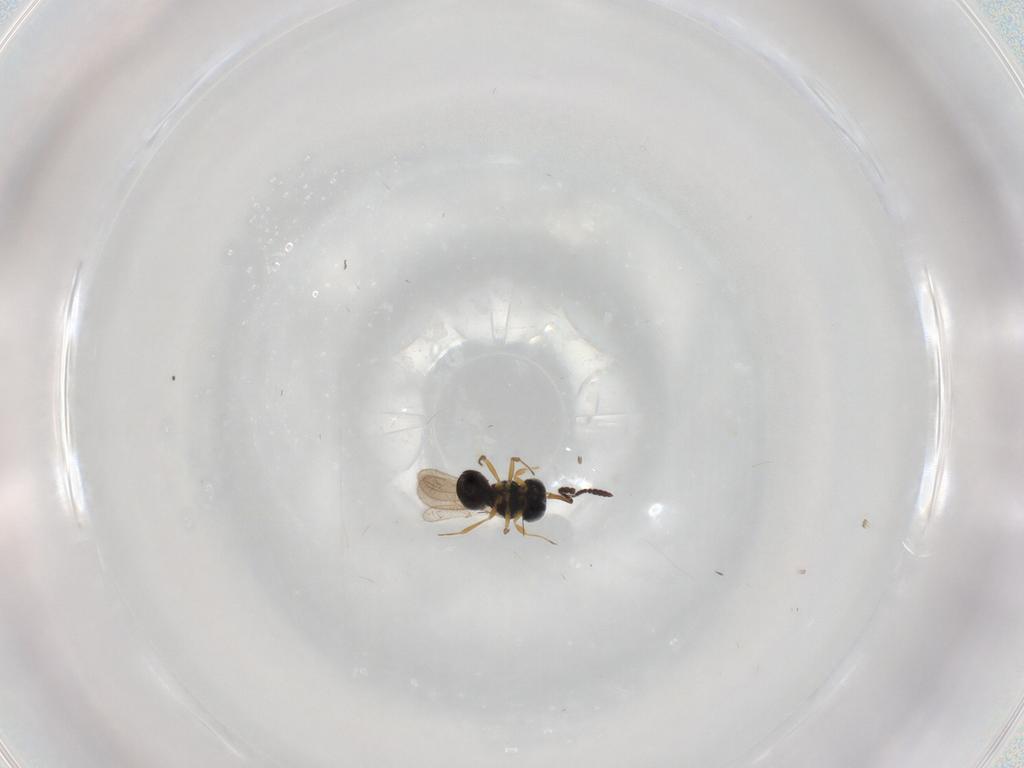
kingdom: Animalia
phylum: Arthropoda
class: Insecta
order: Hymenoptera
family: Scelionidae
